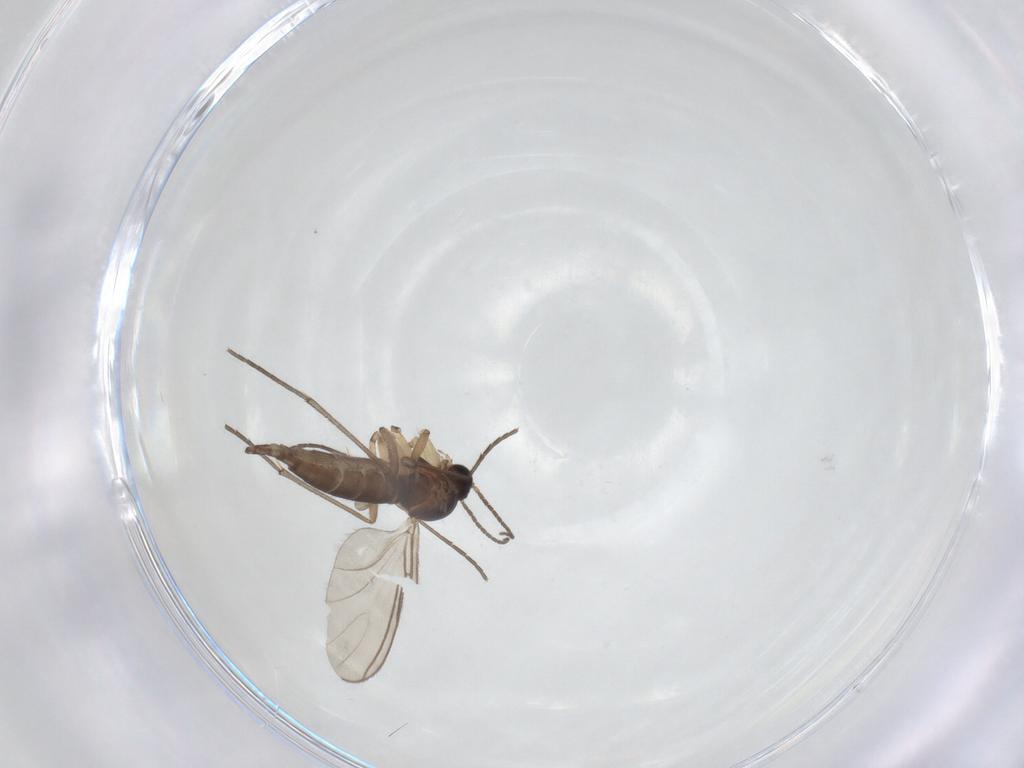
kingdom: Animalia
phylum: Arthropoda
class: Insecta
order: Diptera
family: Sciaridae
